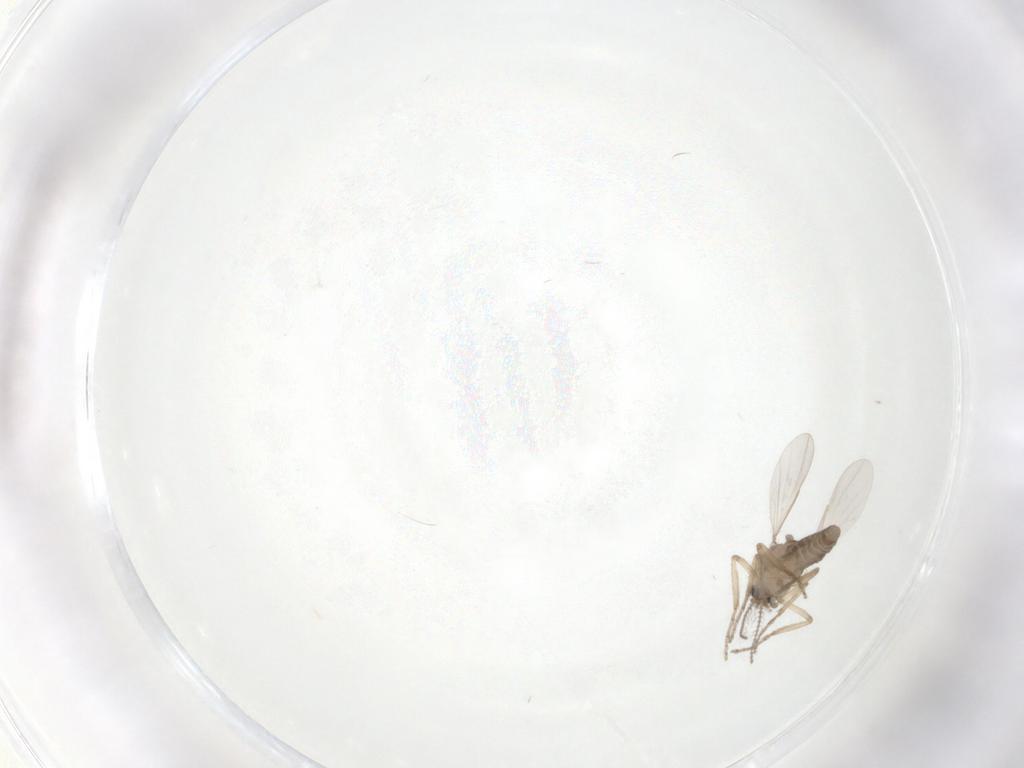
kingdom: Animalia
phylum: Arthropoda
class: Insecta
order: Diptera
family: Ceratopogonidae
